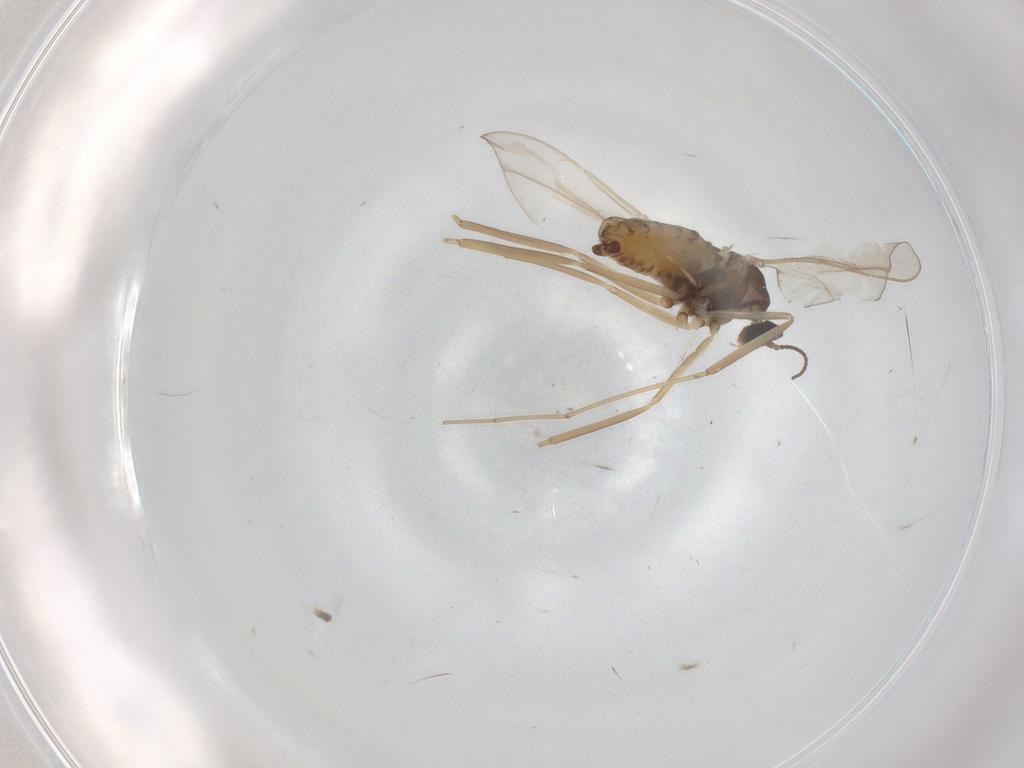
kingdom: Animalia
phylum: Arthropoda
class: Insecta
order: Diptera
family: Cecidomyiidae
